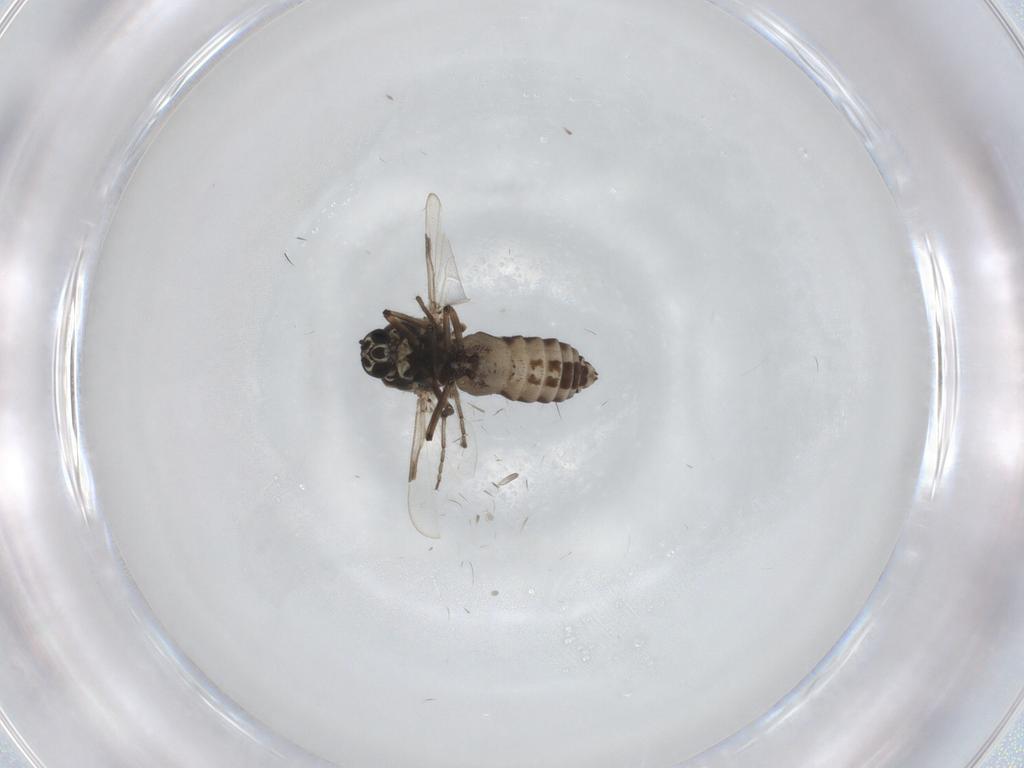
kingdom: Animalia
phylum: Arthropoda
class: Insecta
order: Diptera
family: Ceratopogonidae
